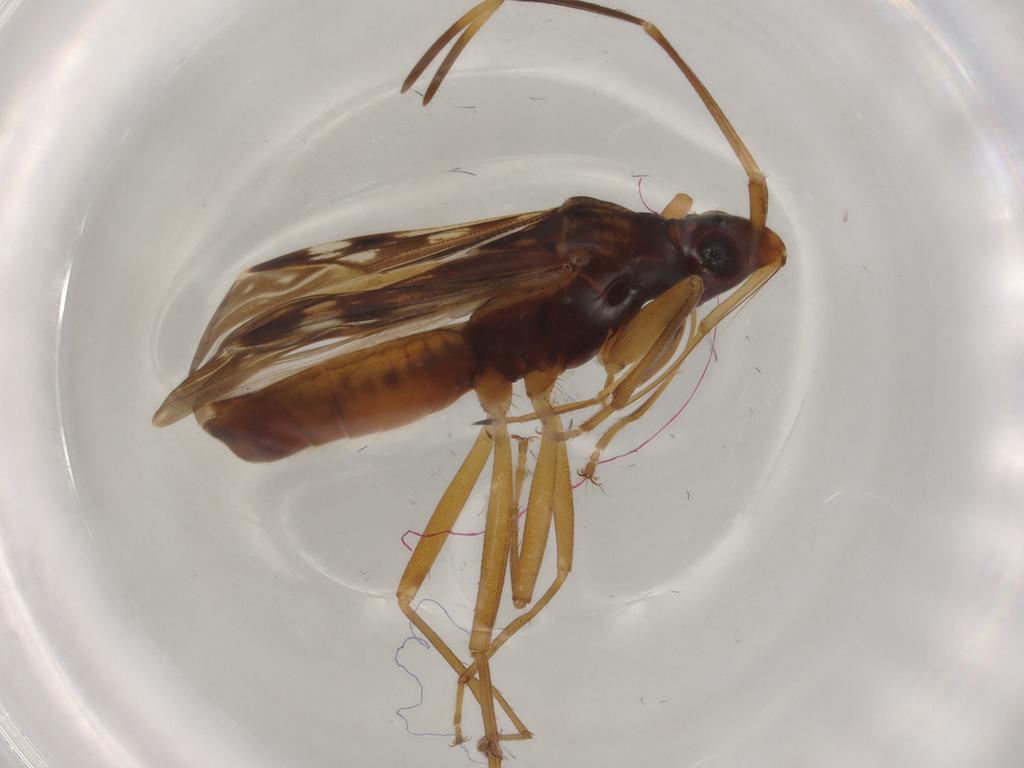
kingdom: Animalia
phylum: Arthropoda
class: Insecta
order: Hemiptera
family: Rhyparochromidae
